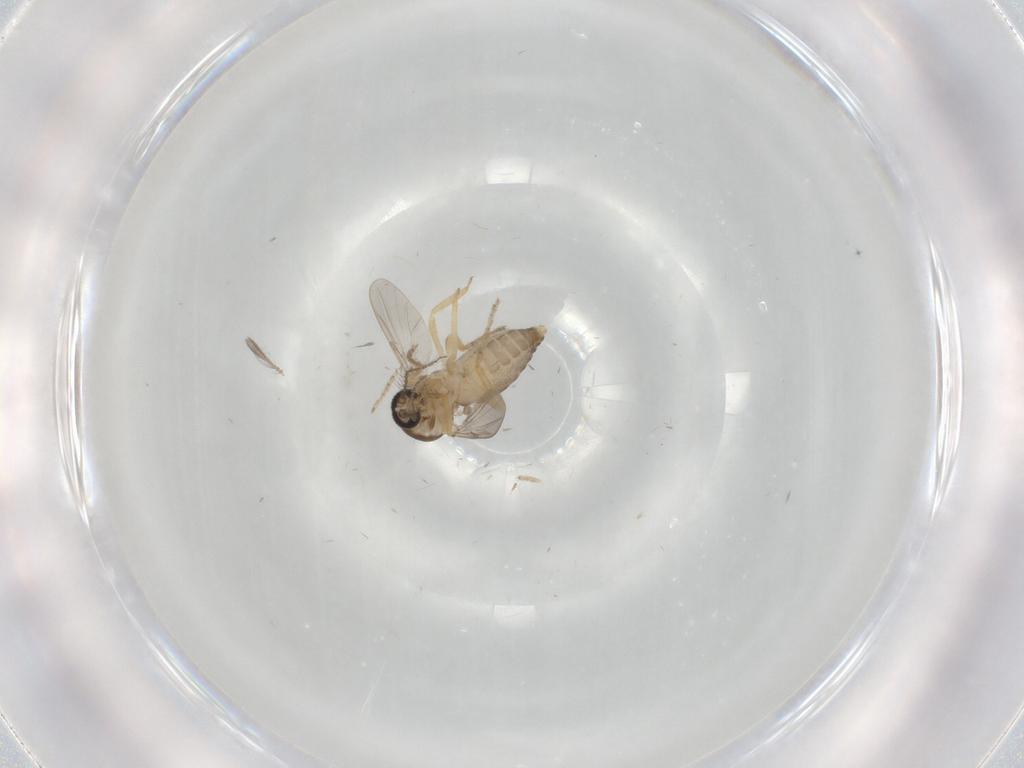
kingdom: Animalia
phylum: Arthropoda
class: Insecta
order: Diptera
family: Ceratopogonidae
